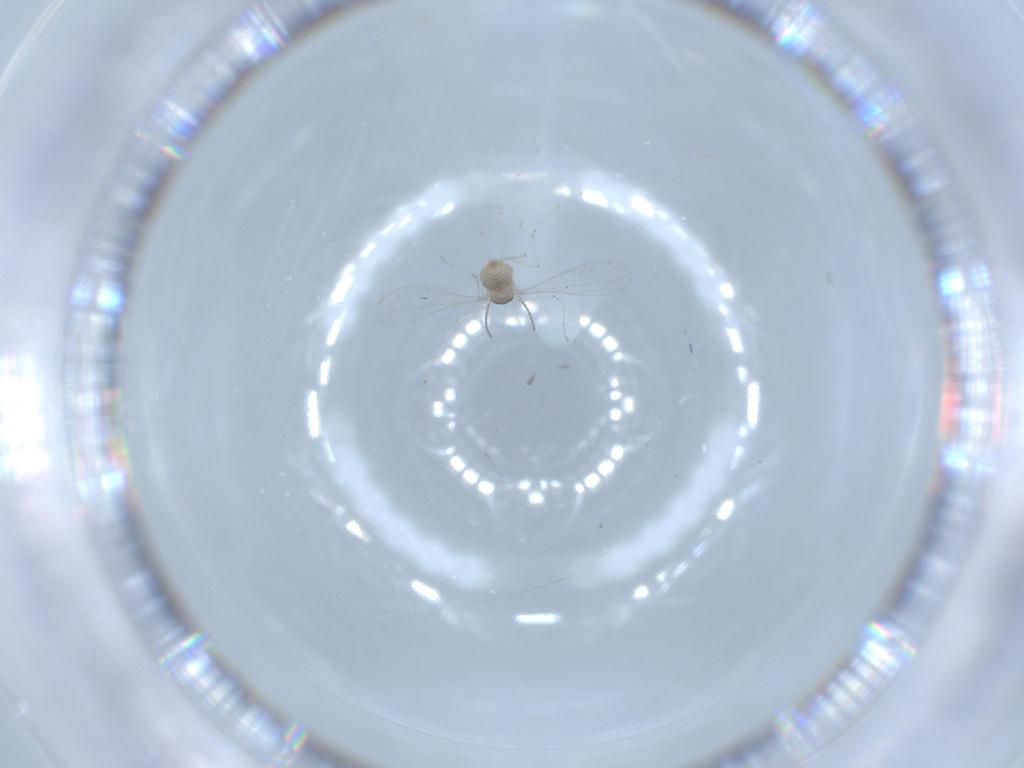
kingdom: Animalia
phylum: Arthropoda
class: Insecta
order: Diptera
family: Cecidomyiidae
